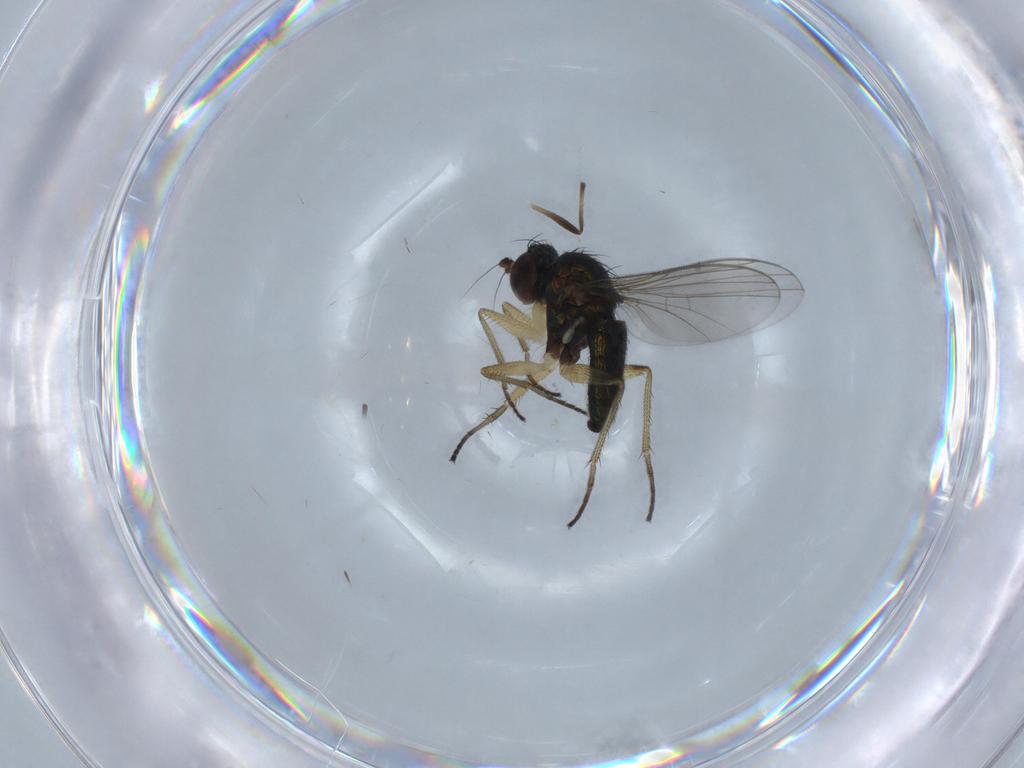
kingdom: Animalia
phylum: Arthropoda
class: Insecta
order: Diptera
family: Chironomidae
